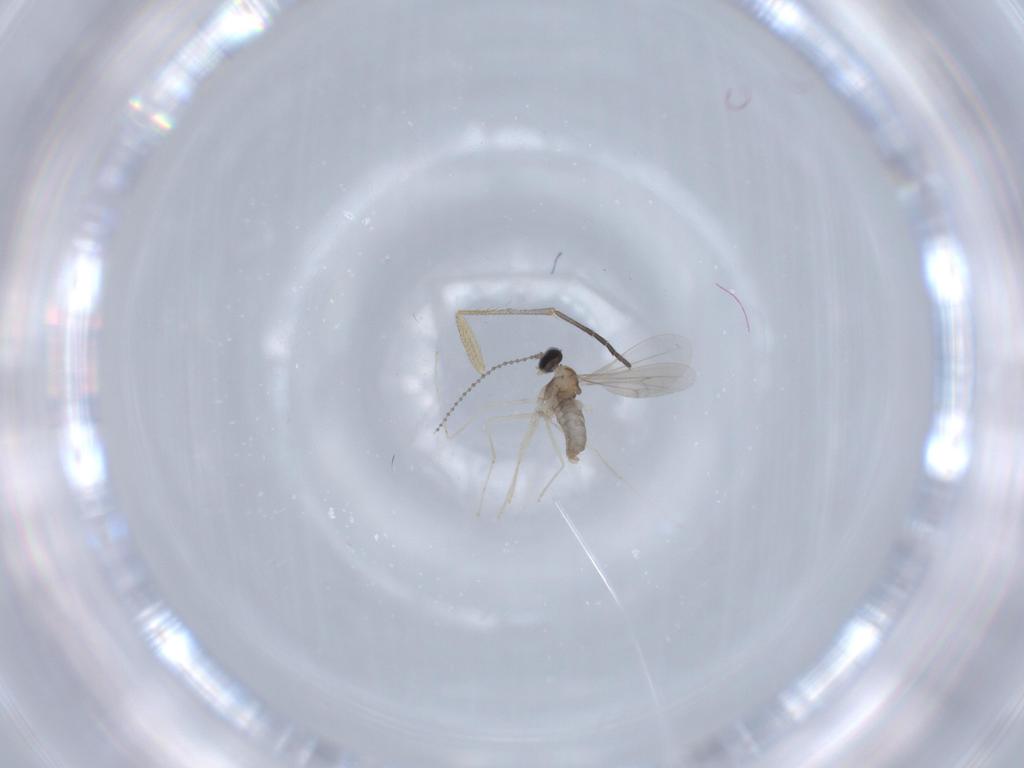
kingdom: Animalia
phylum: Arthropoda
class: Insecta
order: Diptera
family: Cecidomyiidae
